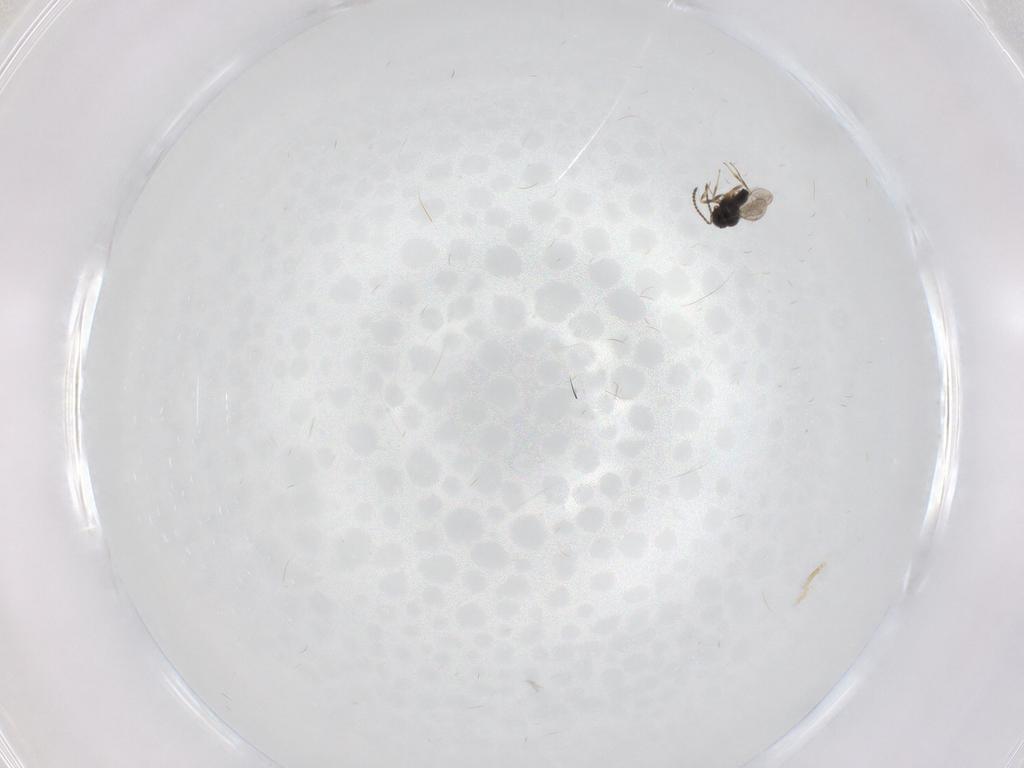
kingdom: Animalia
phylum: Arthropoda
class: Insecta
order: Hymenoptera
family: Scelionidae
